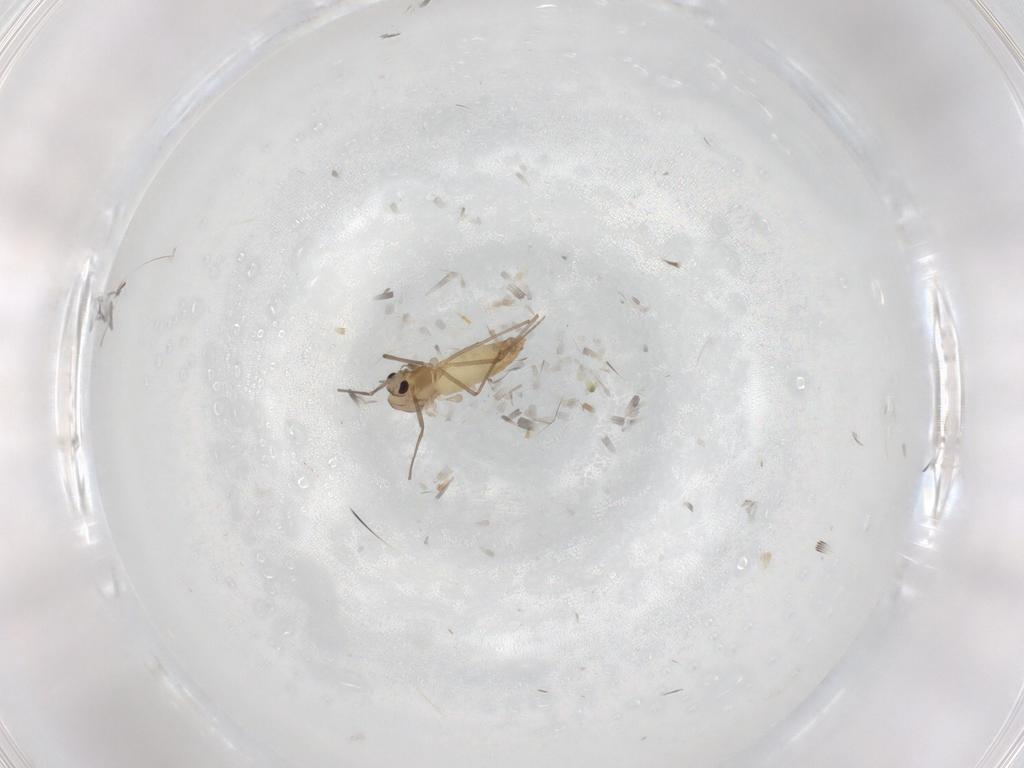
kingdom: Animalia
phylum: Arthropoda
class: Insecta
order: Diptera
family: Chironomidae
